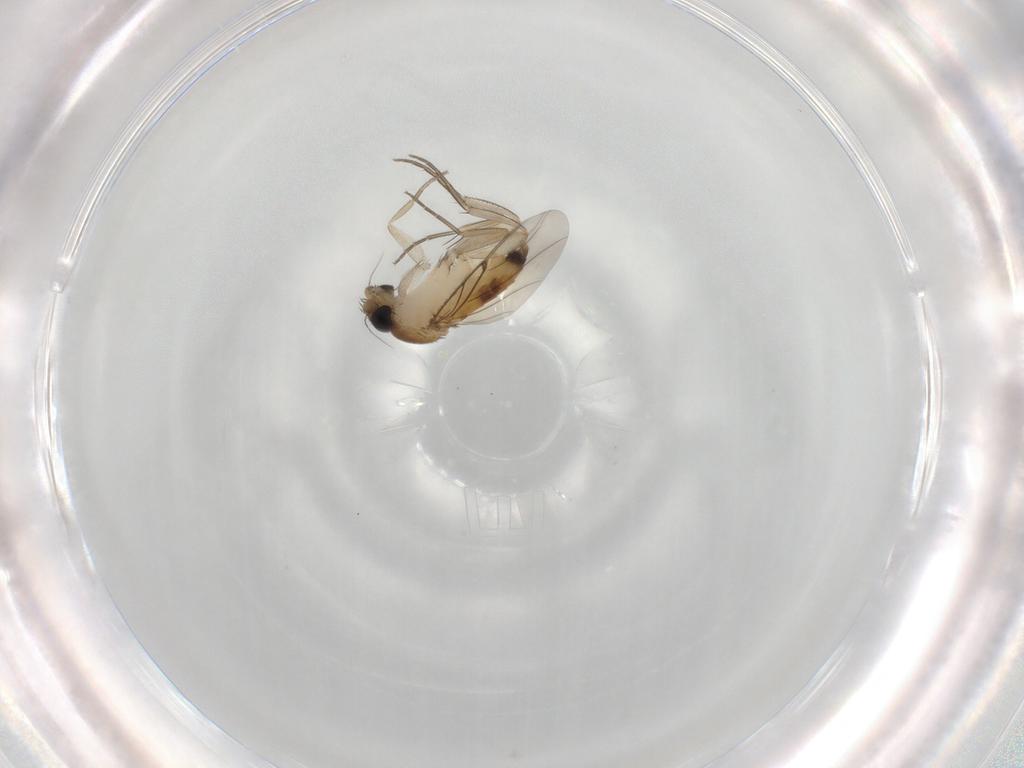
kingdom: Animalia
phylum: Arthropoda
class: Insecta
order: Diptera
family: Phoridae
